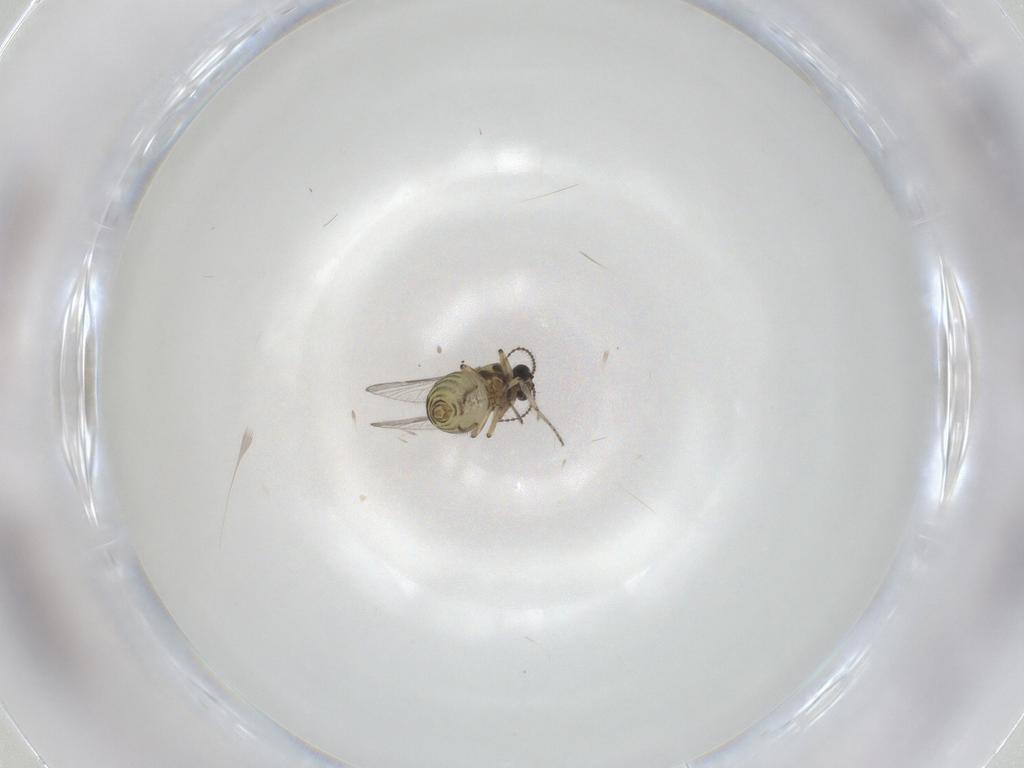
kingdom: Animalia
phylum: Arthropoda
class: Insecta
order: Diptera
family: Ceratopogonidae
